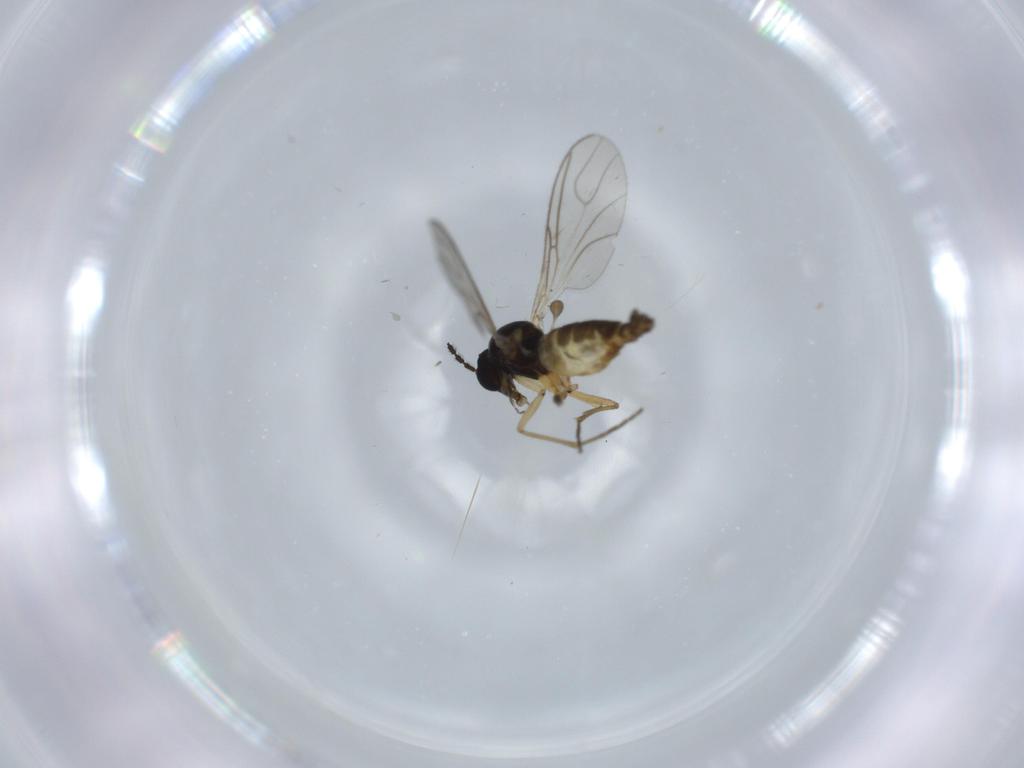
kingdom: Animalia
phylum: Arthropoda
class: Insecta
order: Diptera
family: Sciaridae
